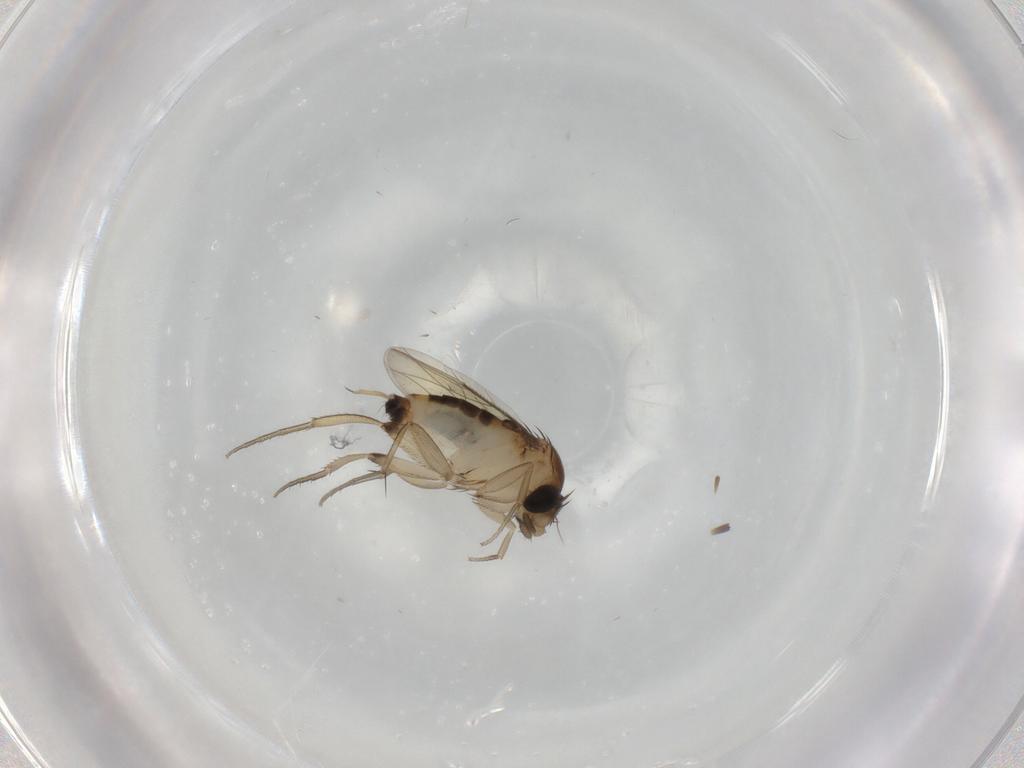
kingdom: Animalia
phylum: Arthropoda
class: Insecta
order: Diptera
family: Phoridae
